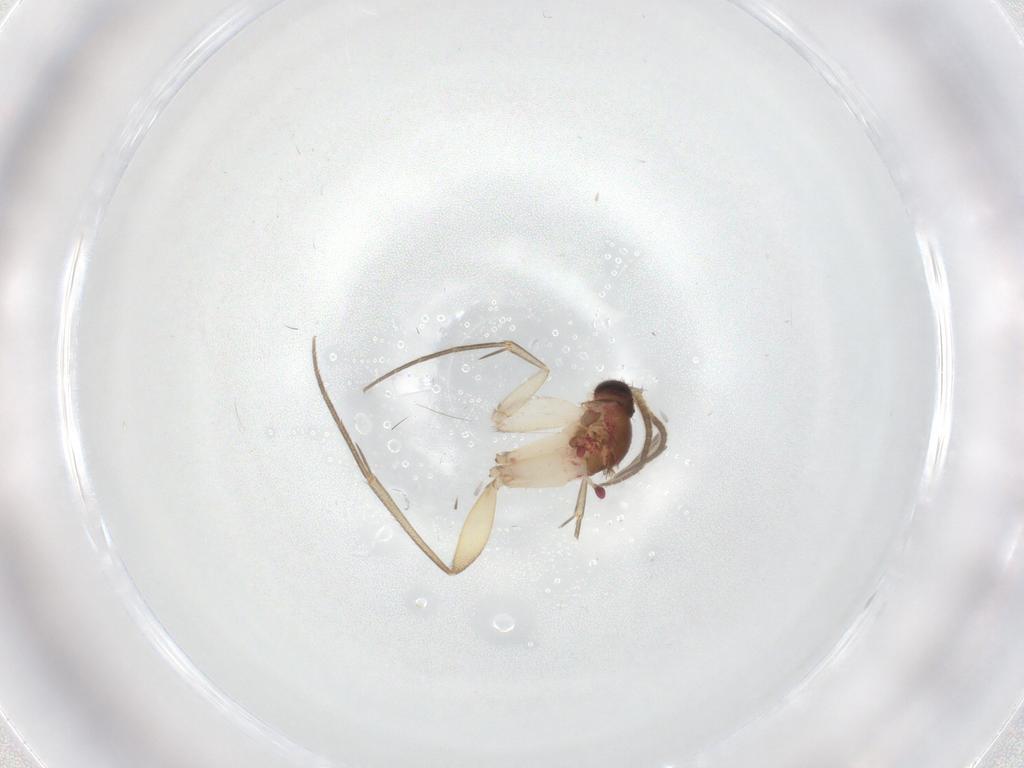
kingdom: Animalia
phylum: Arthropoda
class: Insecta
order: Diptera
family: Mycetophilidae
